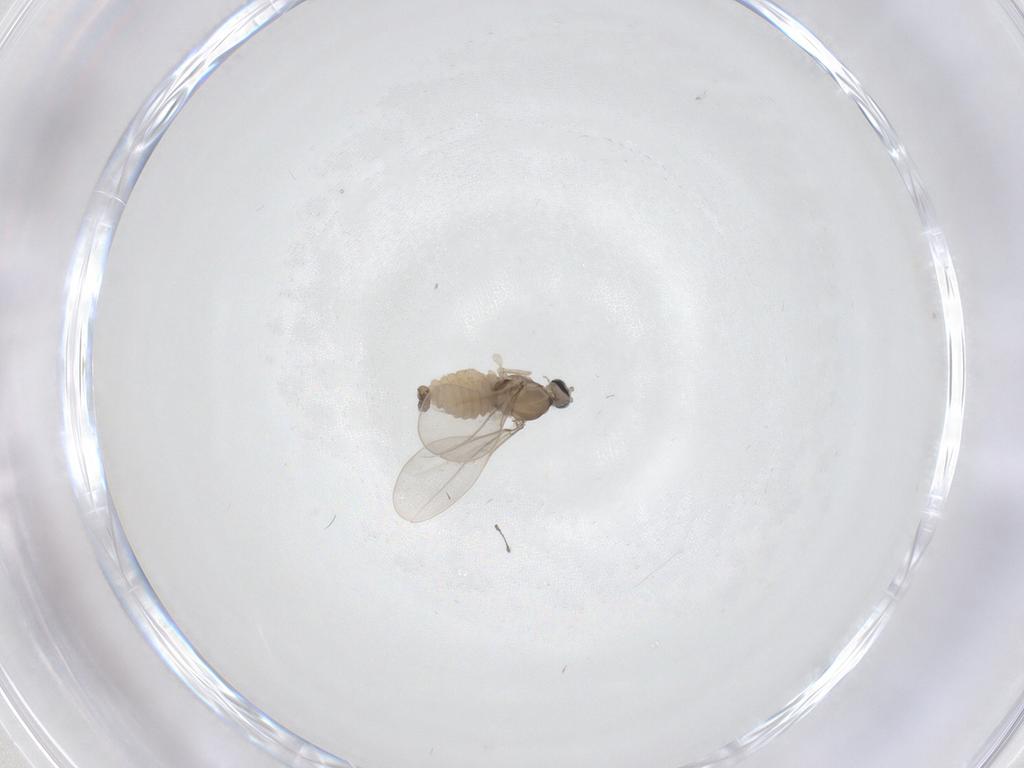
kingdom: Animalia
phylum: Arthropoda
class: Insecta
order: Diptera
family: Cecidomyiidae
